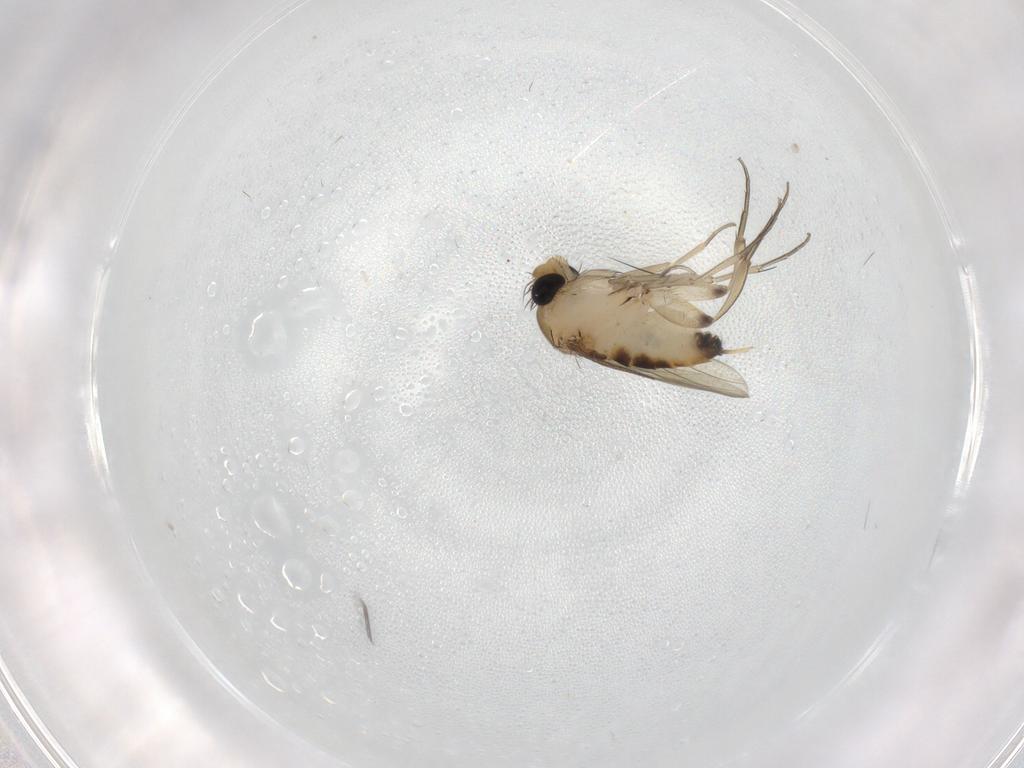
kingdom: Animalia
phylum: Arthropoda
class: Insecta
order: Diptera
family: Phoridae
